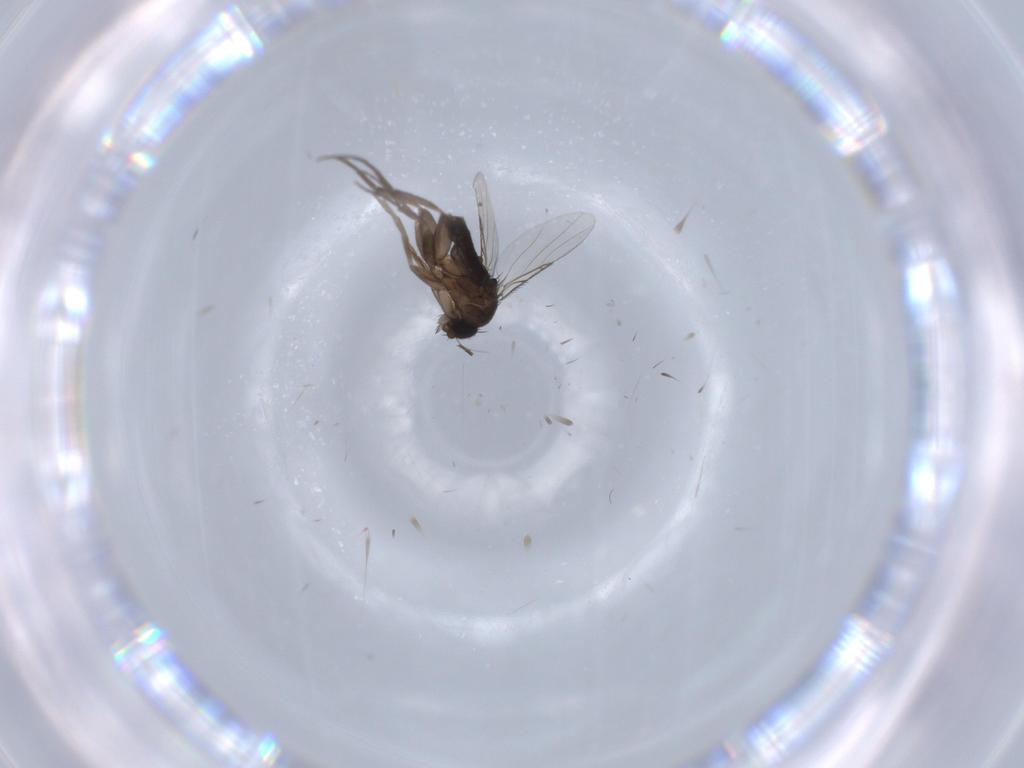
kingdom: Animalia
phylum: Arthropoda
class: Insecta
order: Diptera
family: Phoridae
